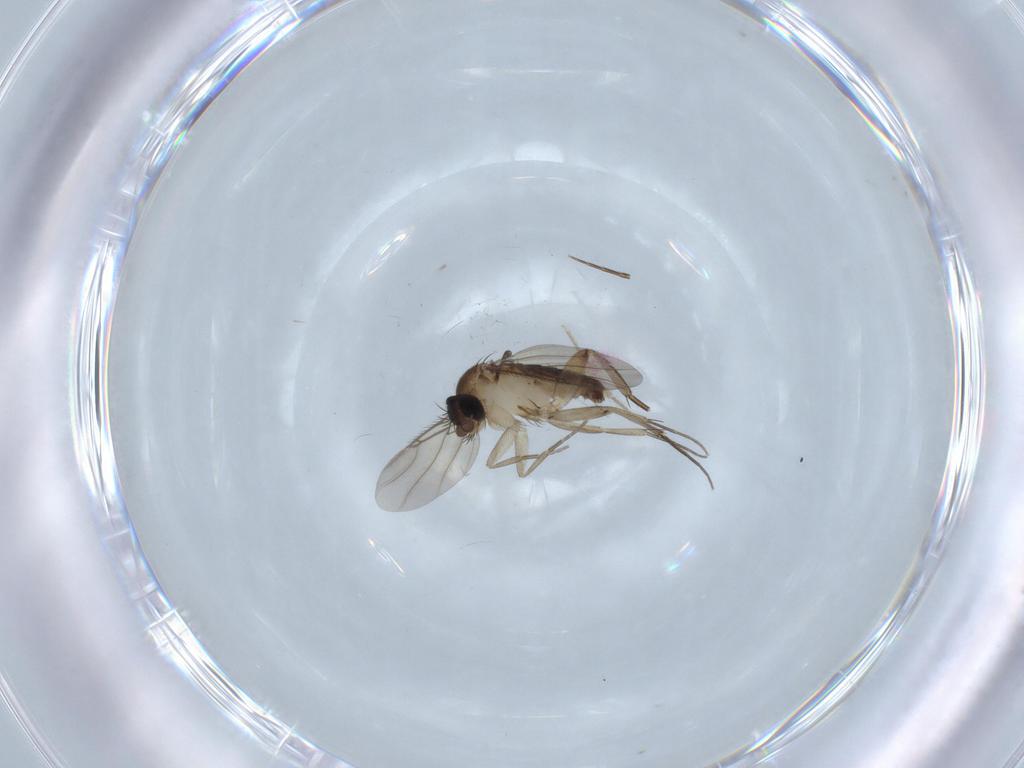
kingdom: Animalia
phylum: Arthropoda
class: Insecta
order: Diptera
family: Phoridae
